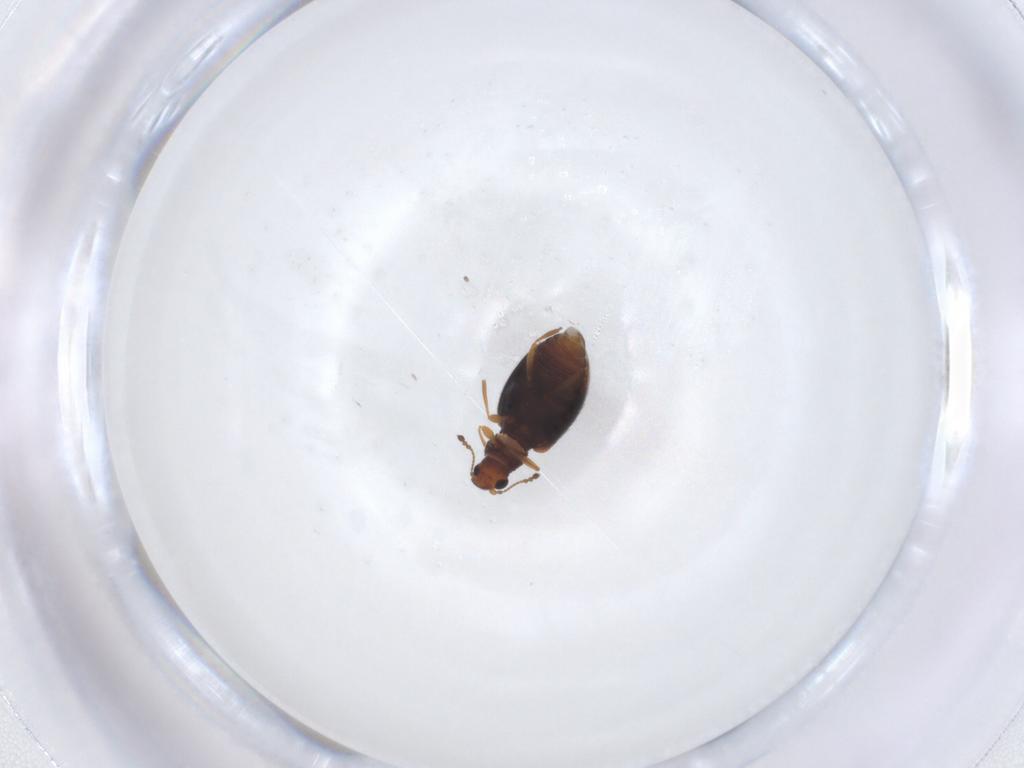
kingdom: Animalia
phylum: Arthropoda
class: Insecta
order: Coleoptera
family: Latridiidae
